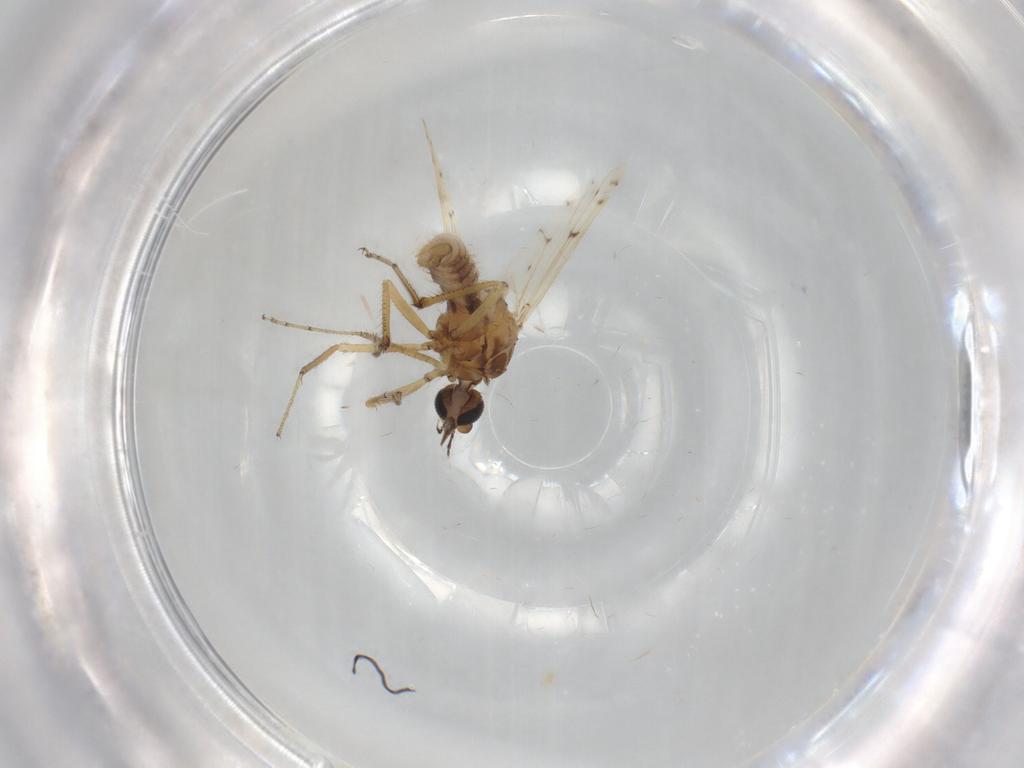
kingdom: Animalia
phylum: Arthropoda
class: Insecta
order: Diptera
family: Ceratopogonidae
